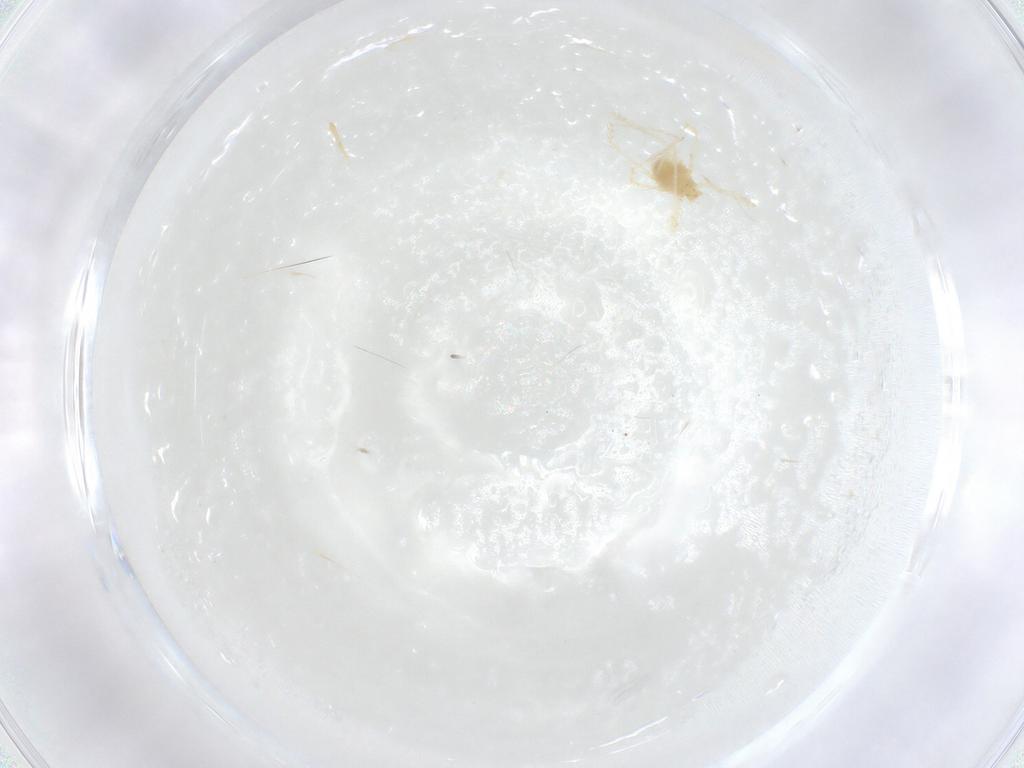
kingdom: Animalia
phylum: Arthropoda
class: Arachnida
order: Trombidiformes
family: Erythraeidae
